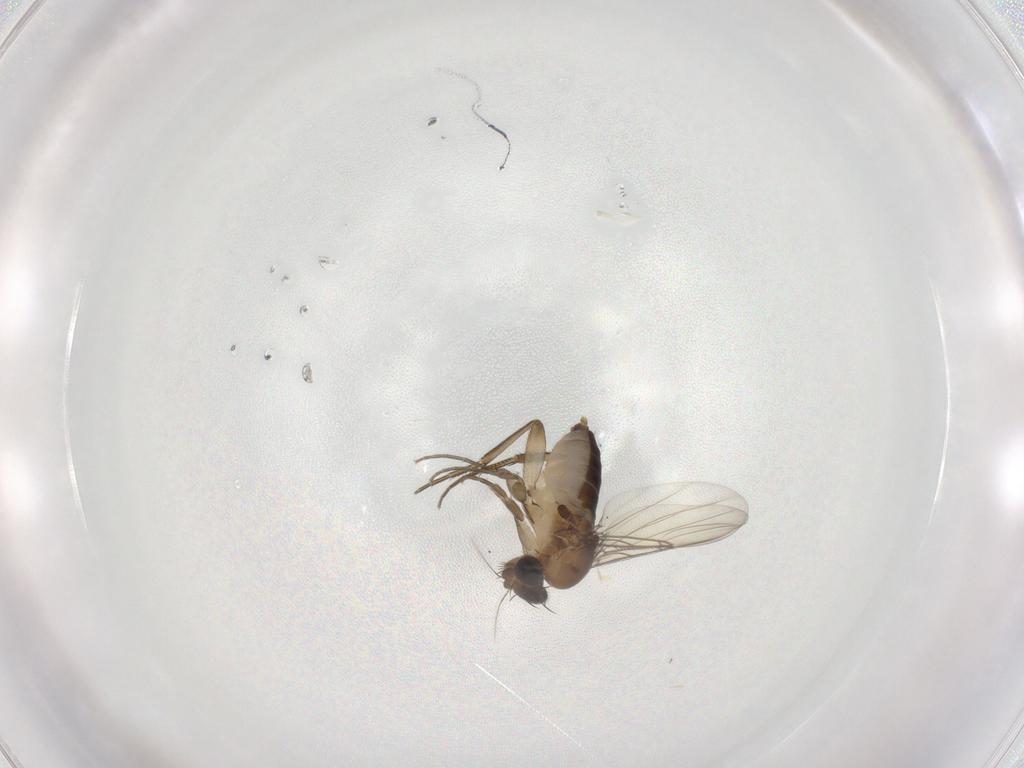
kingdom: Animalia
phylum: Arthropoda
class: Insecta
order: Diptera
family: Phoridae
